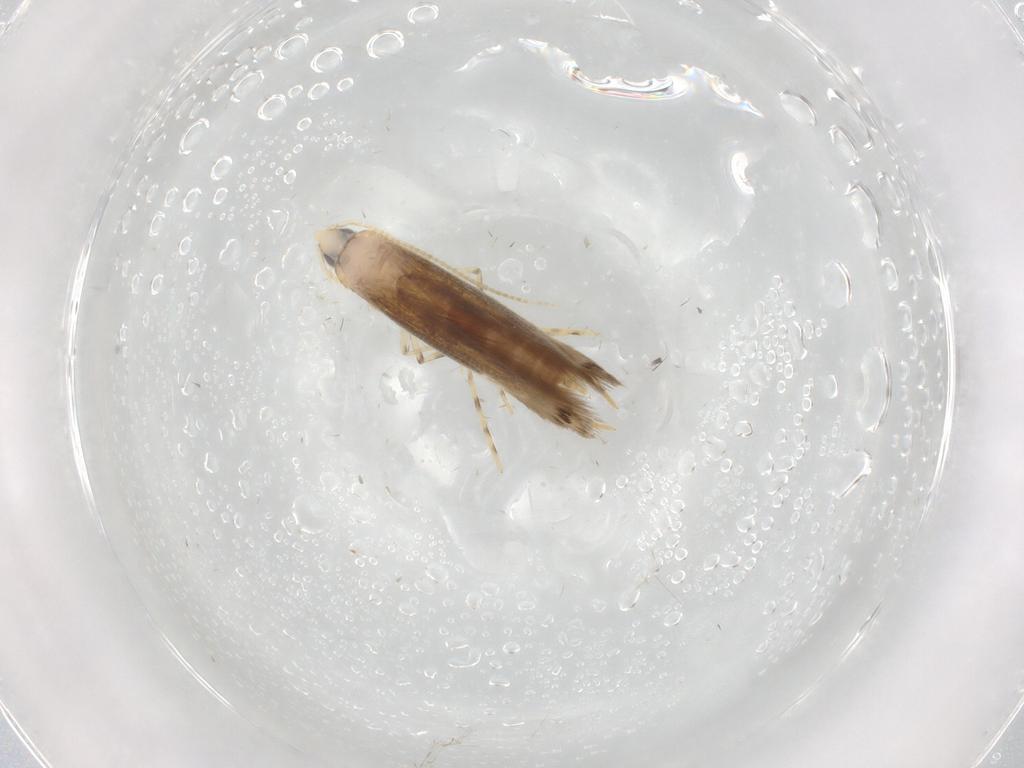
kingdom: Animalia
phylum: Arthropoda
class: Insecta
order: Lepidoptera
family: Lyonetiidae
